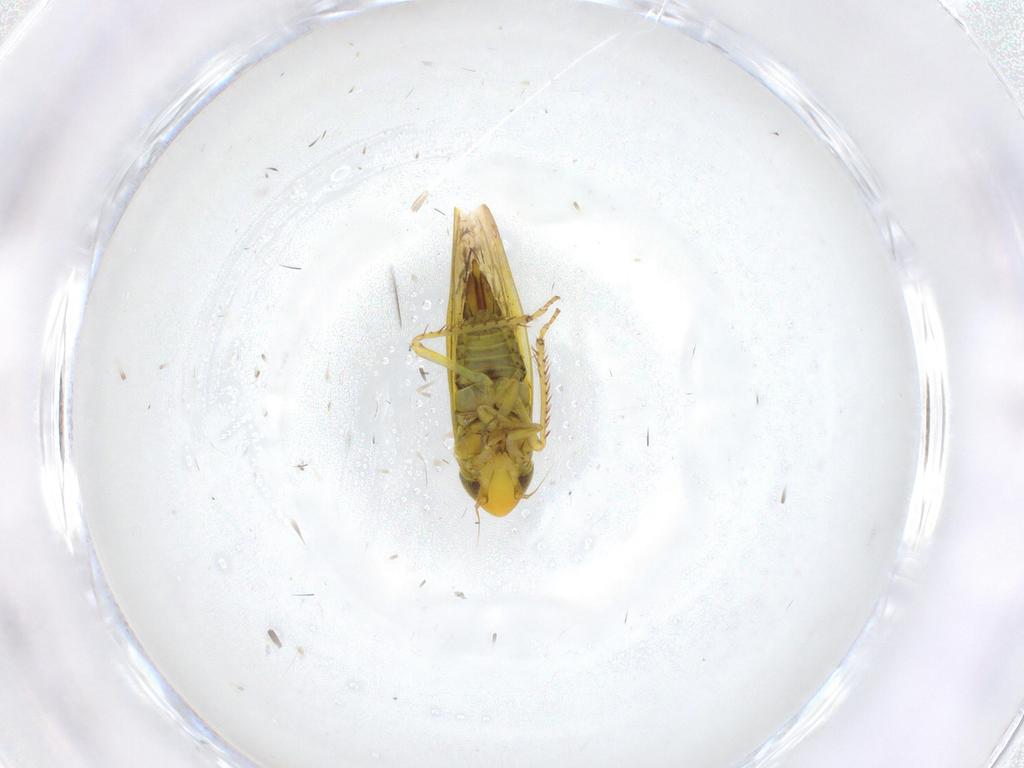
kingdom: Animalia
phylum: Arthropoda
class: Insecta
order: Hemiptera
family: Cicadellidae
